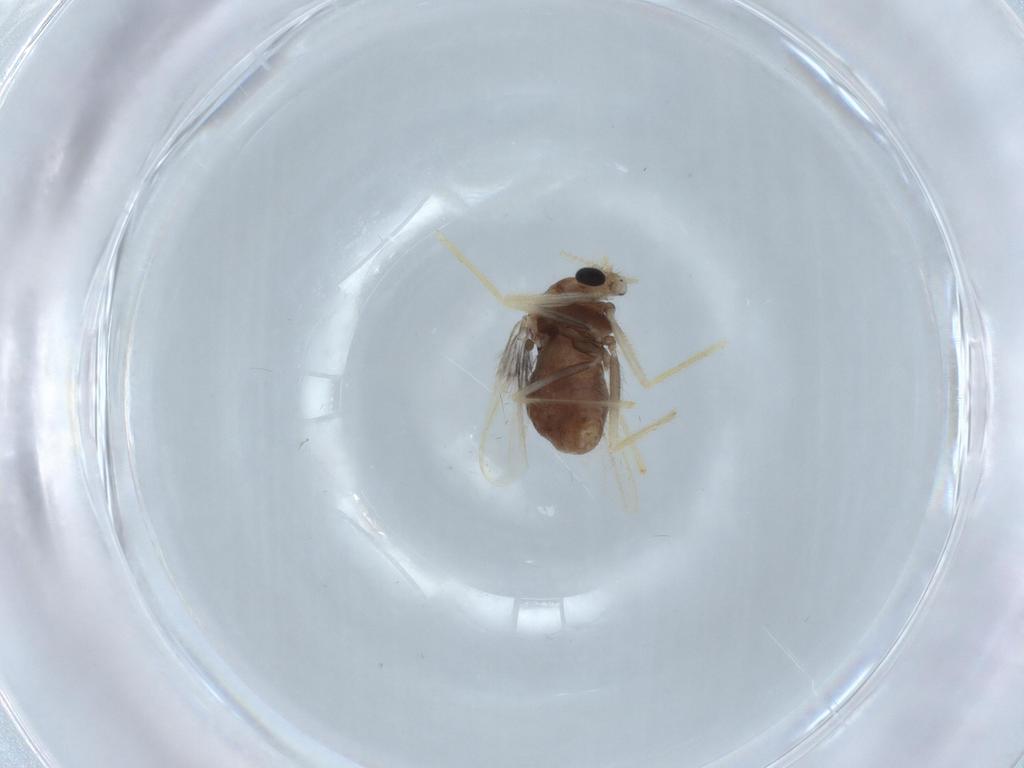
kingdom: Animalia
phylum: Arthropoda
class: Insecta
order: Diptera
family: Chironomidae
